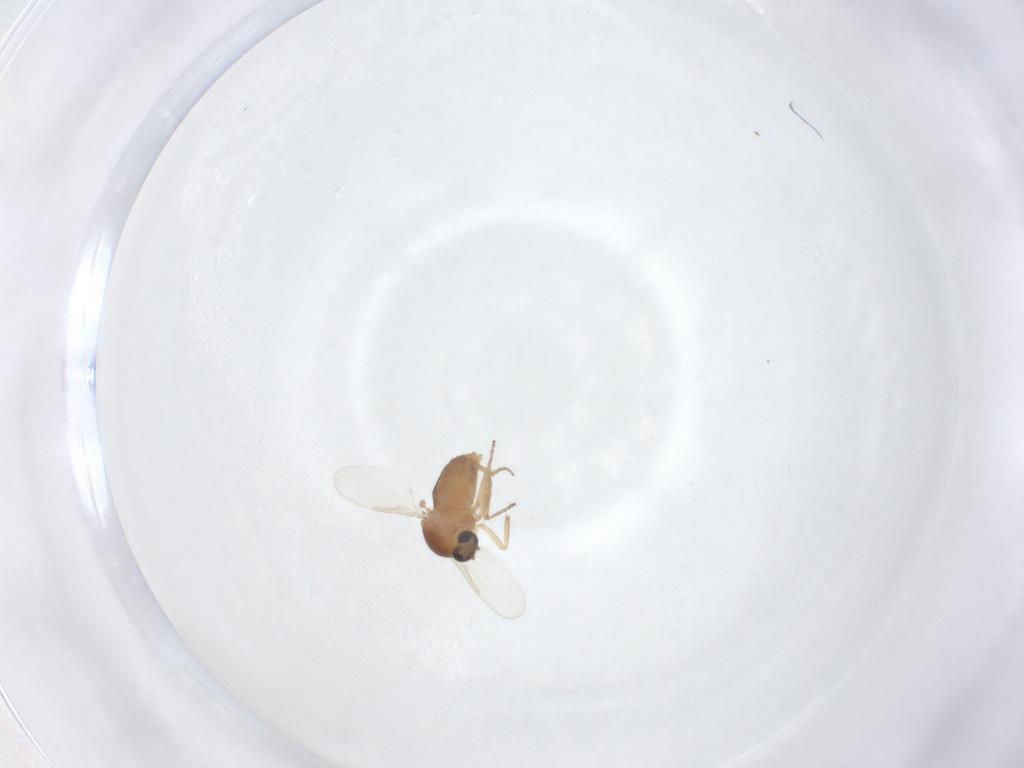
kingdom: Animalia
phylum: Arthropoda
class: Insecta
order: Diptera
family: Ceratopogonidae
